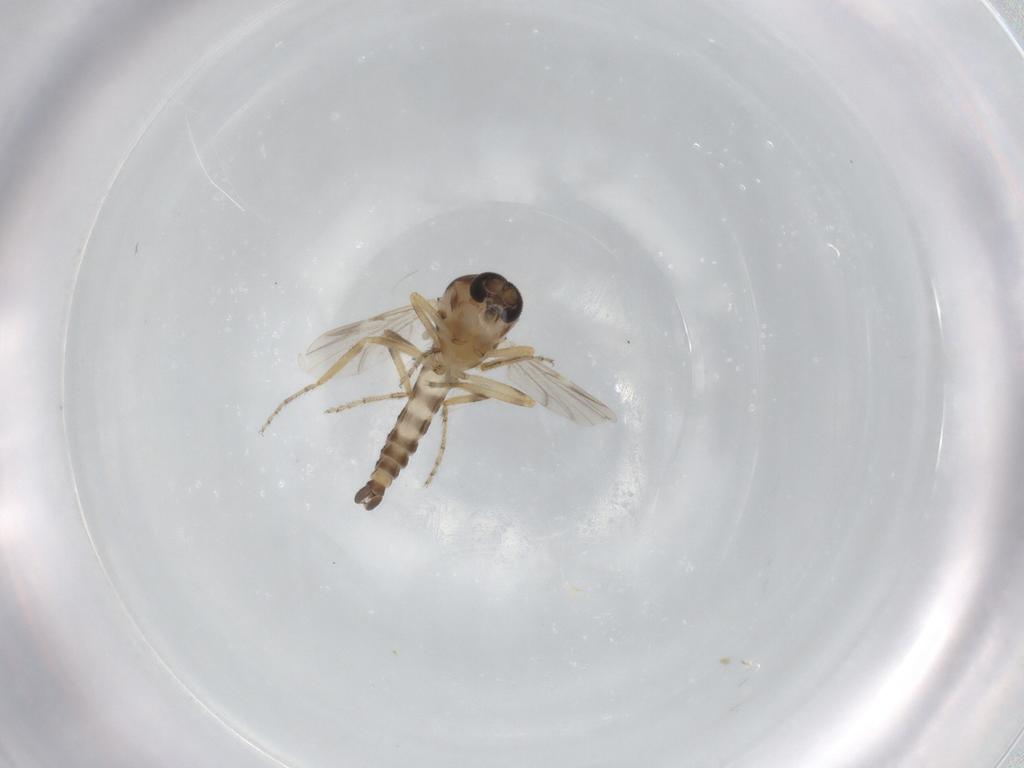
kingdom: Animalia
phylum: Arthropoda
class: Insecta
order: Diptera
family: Ceratopogonidae
